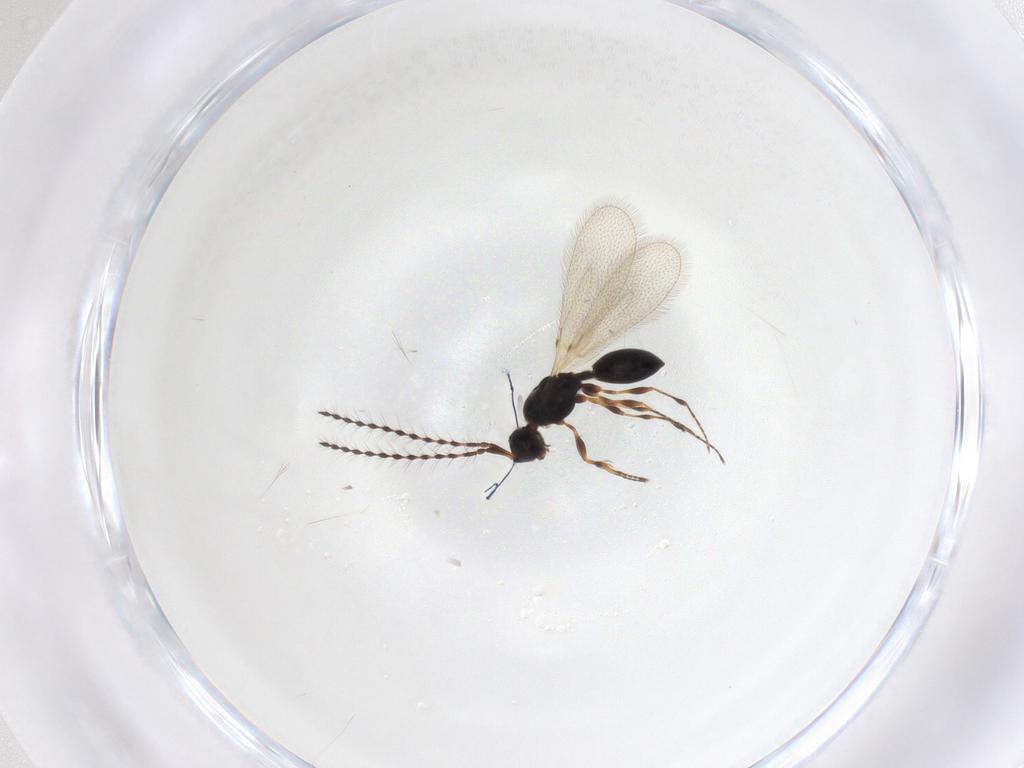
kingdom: Animalia
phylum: Arthropoda
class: Insecta
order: Hymenoptera
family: Diapriidae
